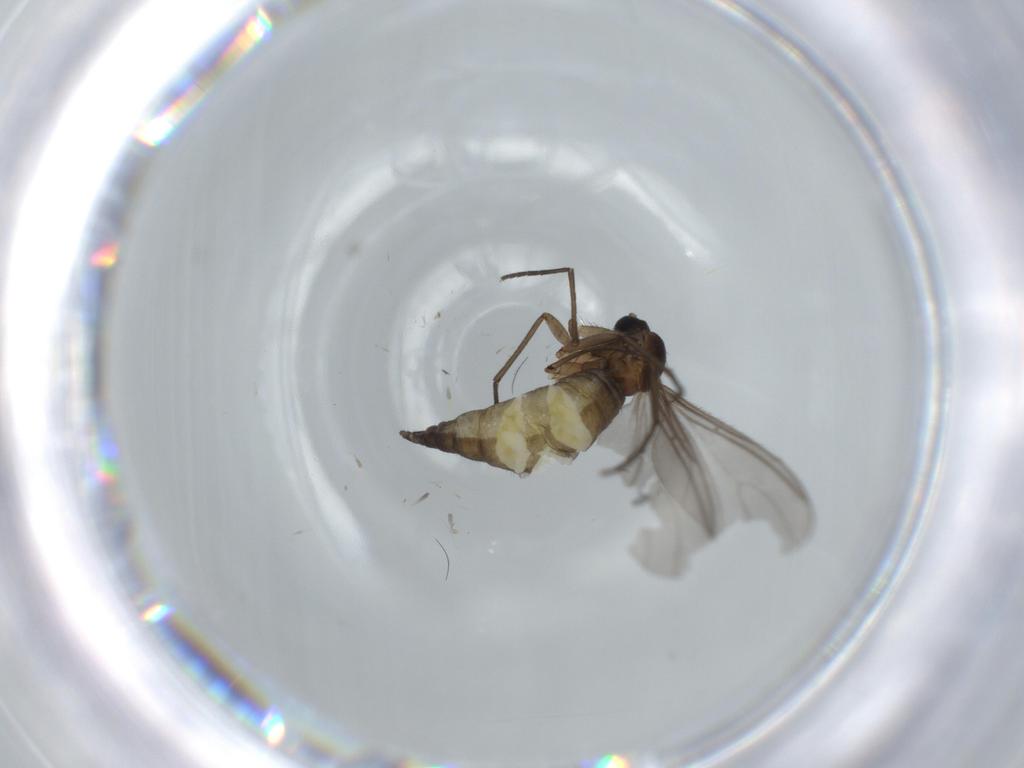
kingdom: Animalia
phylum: Arthropoda
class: Insecta
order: Diptera
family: Sciaridae
